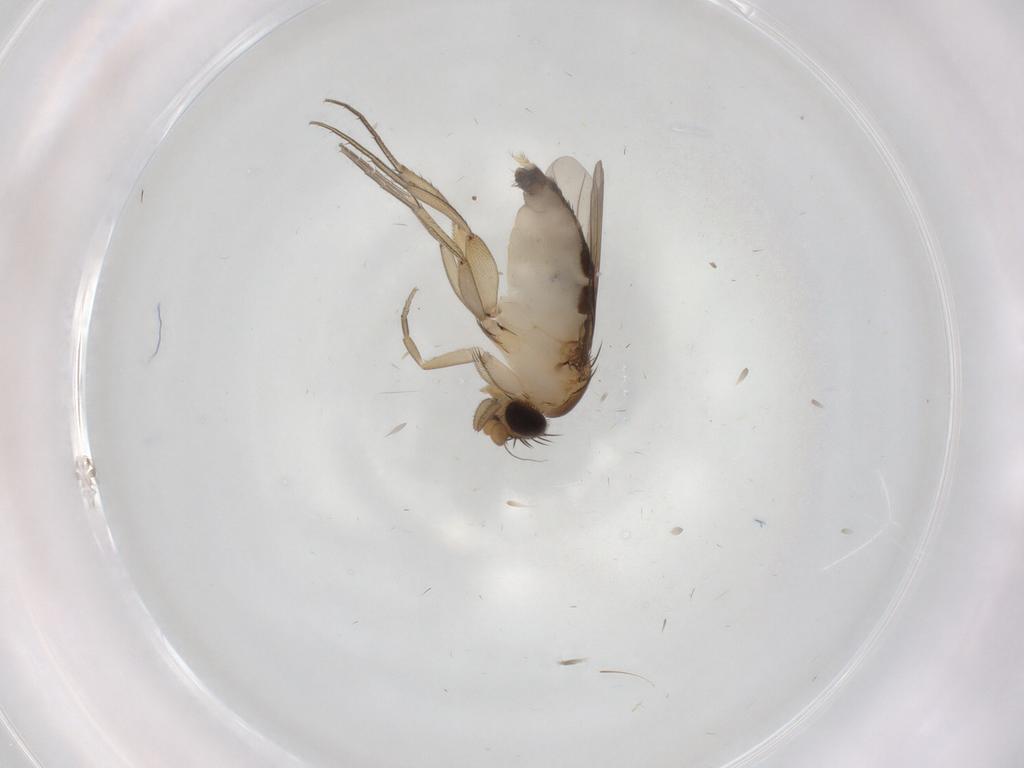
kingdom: Animalia
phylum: Arthropoda
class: Insecta
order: Diptera
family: Phoridae
